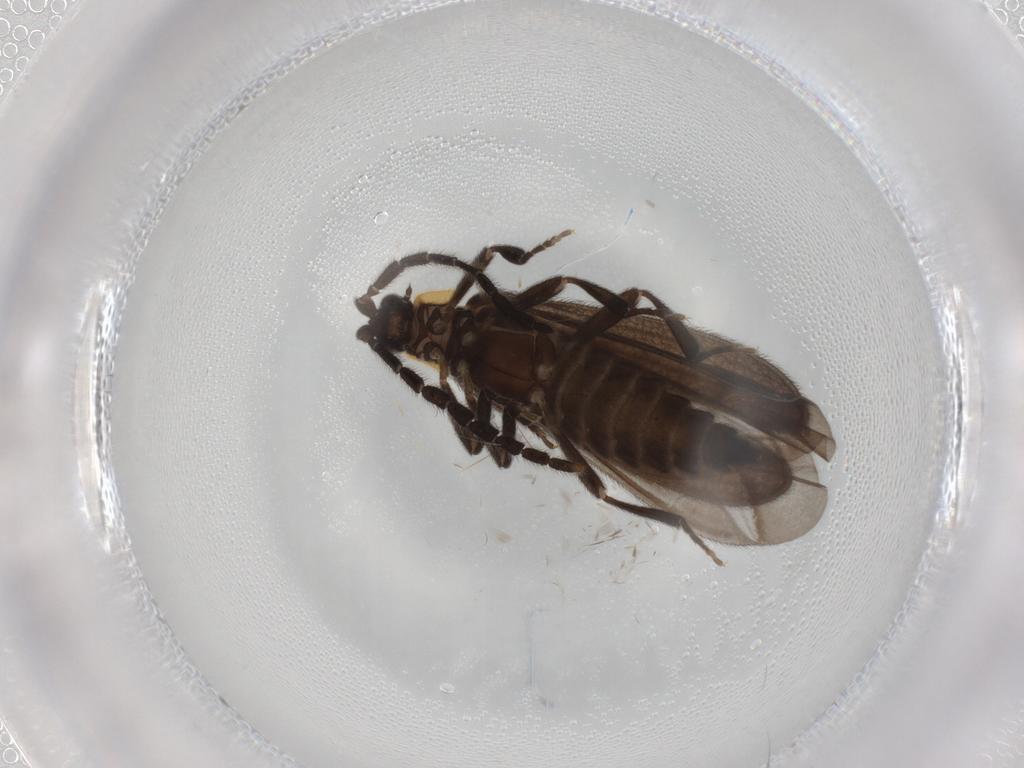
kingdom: Animalia
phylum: Arthropoda
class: Insecta
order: Coleoptera
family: Lycidae
